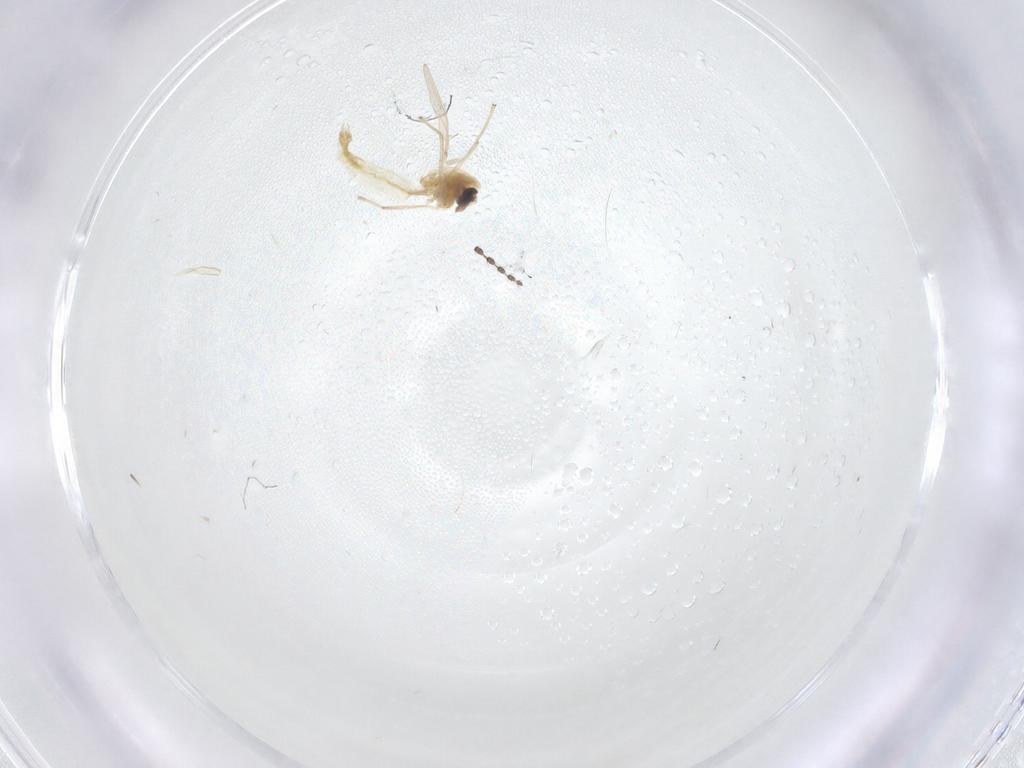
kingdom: Animalia
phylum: Arthropoda
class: Insecta
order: Diptera
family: Chironomidae
